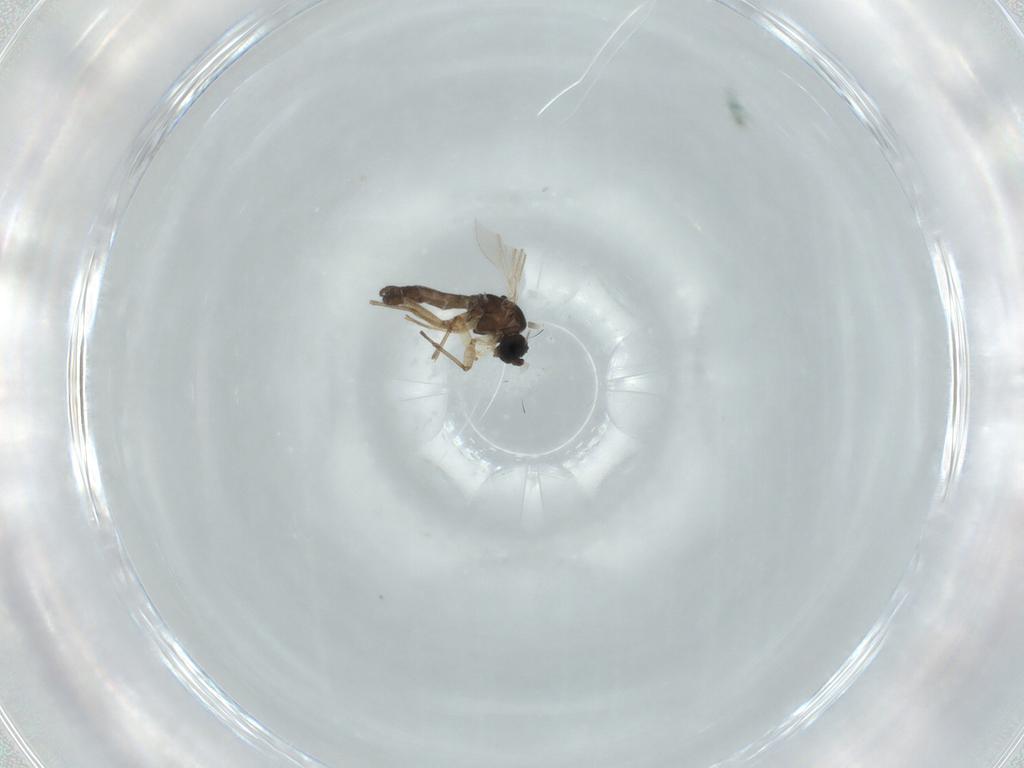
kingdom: Animalia
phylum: Arthropoda
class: Insecta
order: Diptera
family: Sciaridae
